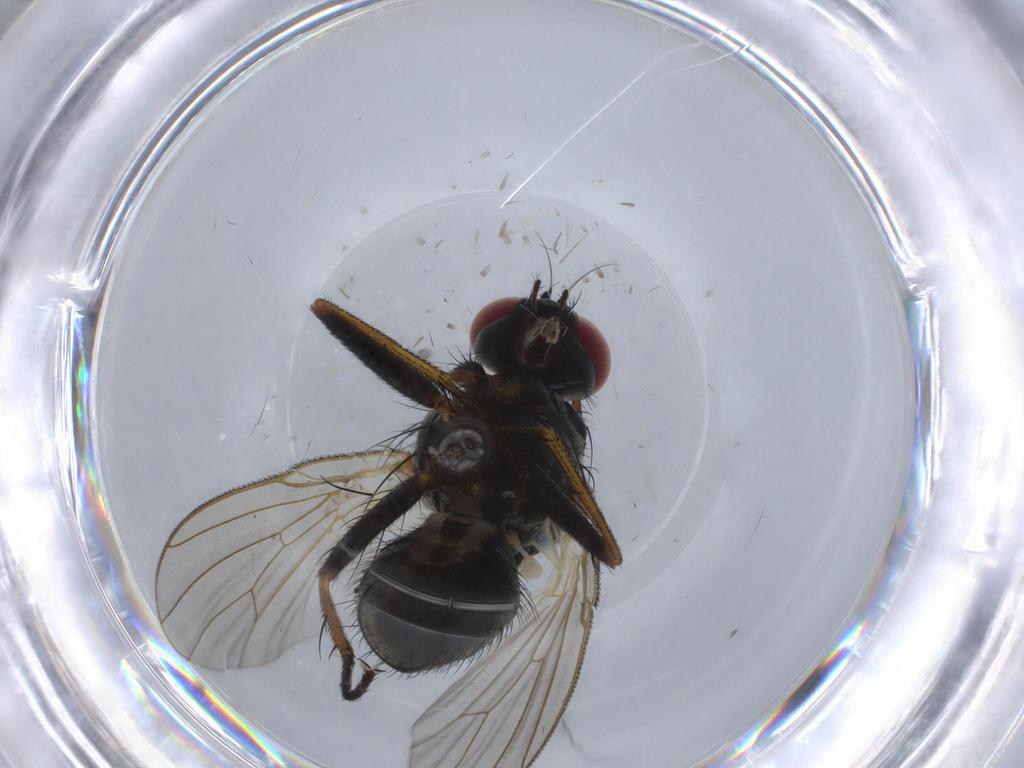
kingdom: Animalia
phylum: Arthropoda
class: Insecta
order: Diptera
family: Sciaridae
